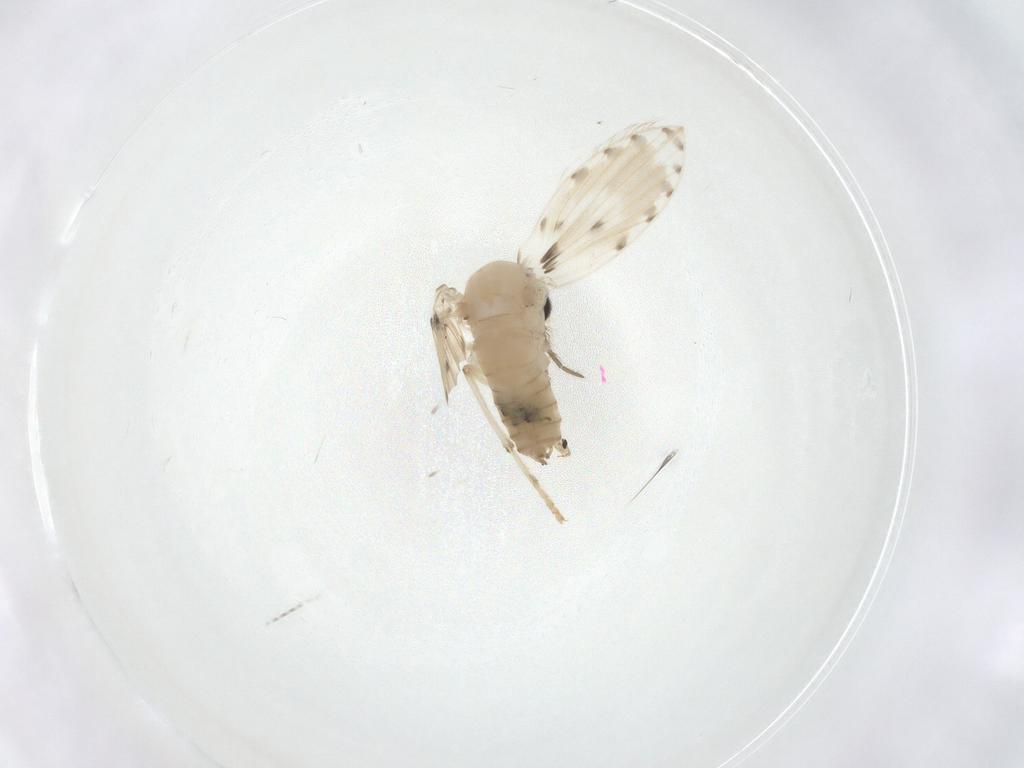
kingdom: Animalia
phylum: Arthropoda
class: Insecta
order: Diptera
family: Psychodidae
